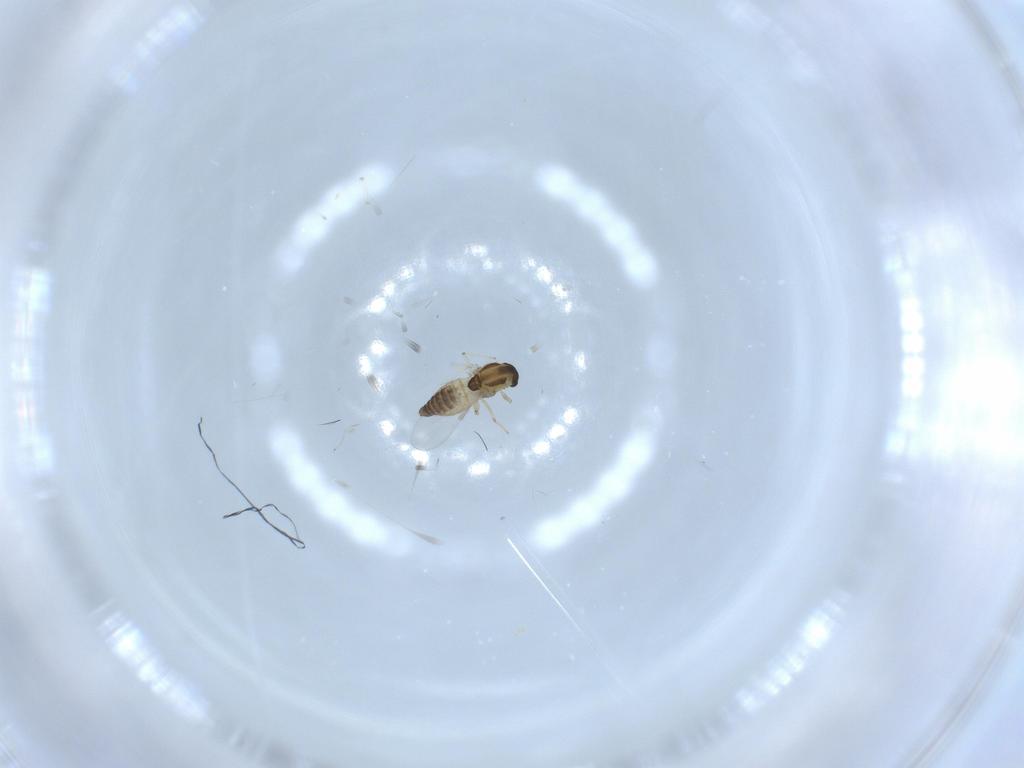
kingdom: Animalia
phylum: Arthropoda
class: Insecta
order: Diptera
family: Chironomidae
